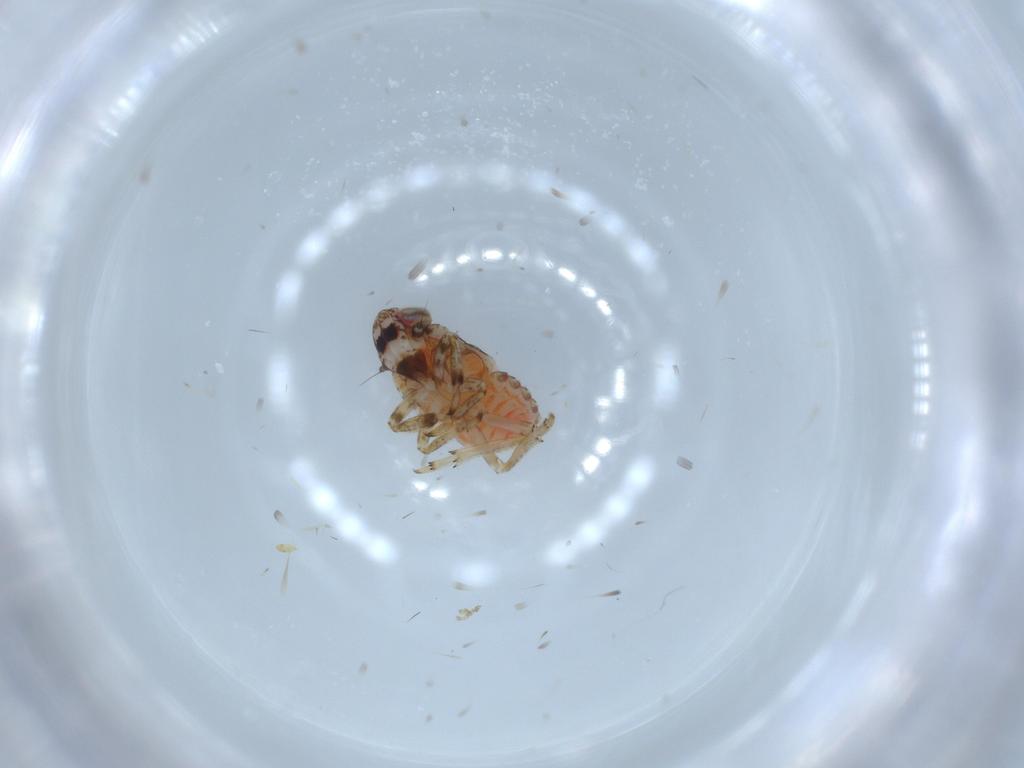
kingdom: Animalia
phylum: Arthropoda
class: Insecta
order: Hemiptera
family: Issidae
